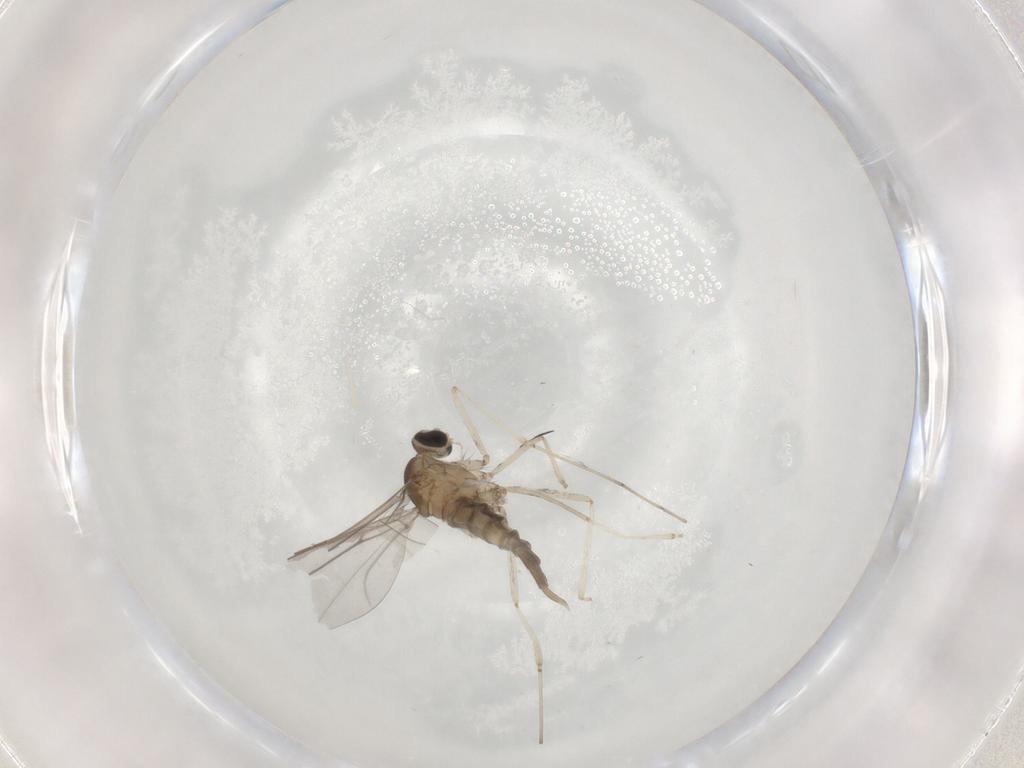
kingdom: Animalia
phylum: Arthropoda
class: Insecta
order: Diptera
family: Cecidomyiidae
